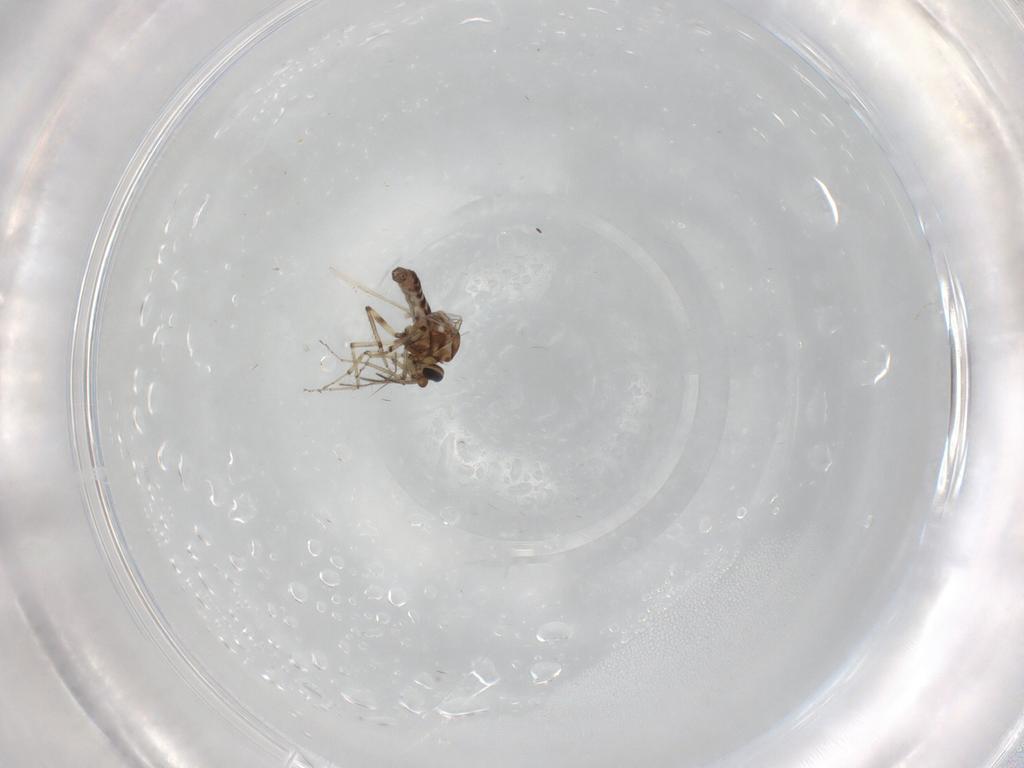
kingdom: Animalia
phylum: Arthropoda
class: Insecta
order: Diptera
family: Ceratopogonidae
